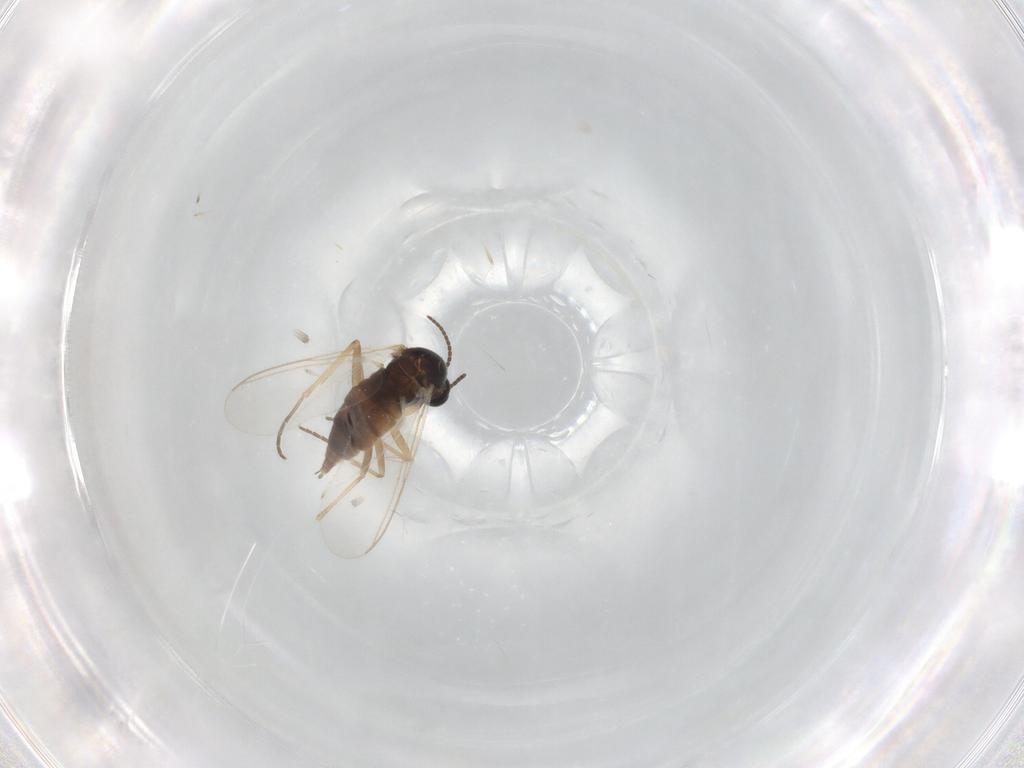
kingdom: Animalia
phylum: Arthropoda
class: Insecta
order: Diptera
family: Sciaridae
